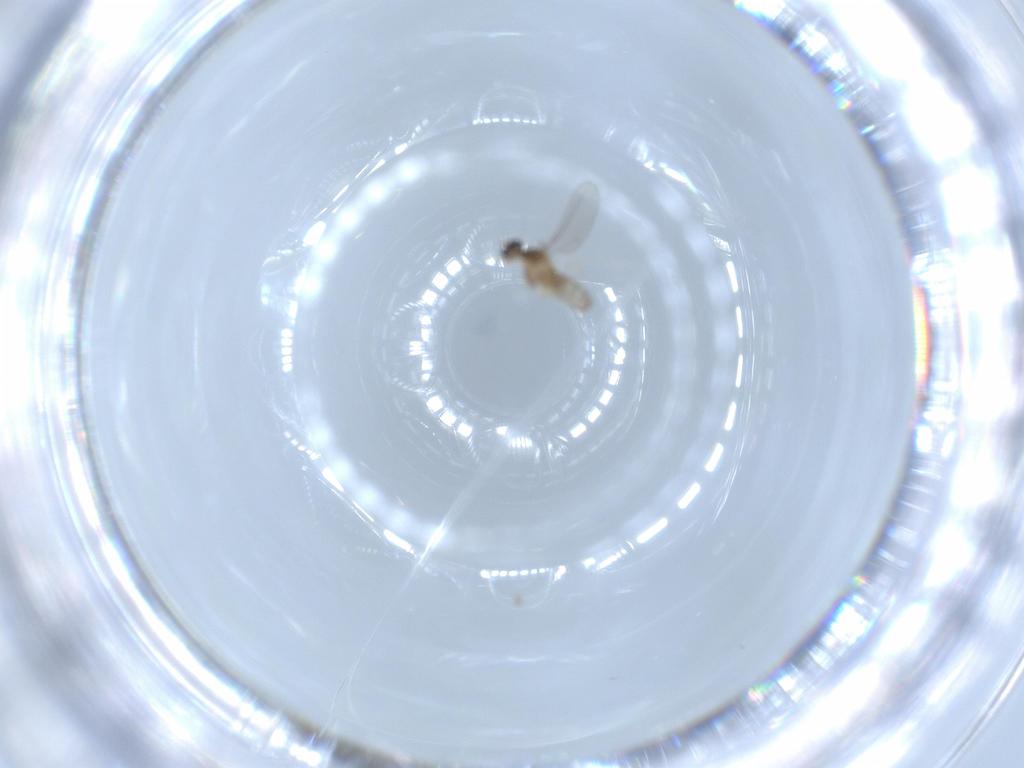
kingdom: Animalia
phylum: Arthropoda
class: Insecta
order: Diptera
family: Cecidomyiidae
